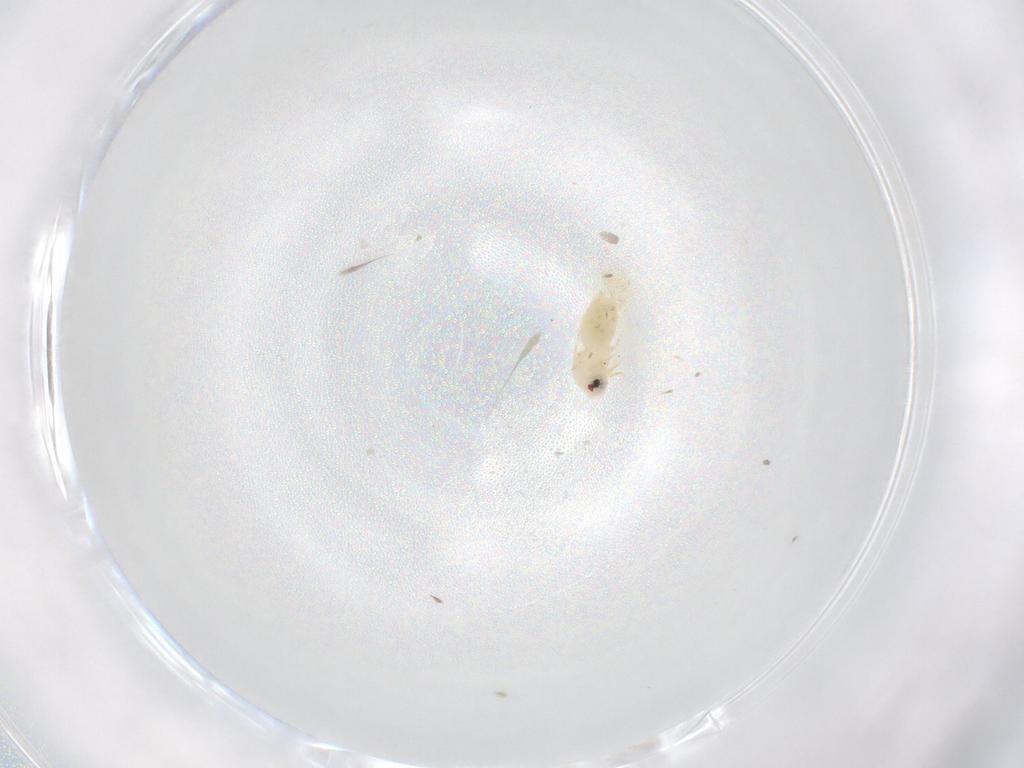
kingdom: Animalia
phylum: Arthropoda
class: Insecta
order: Hemiptera
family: Aleyrodidae
